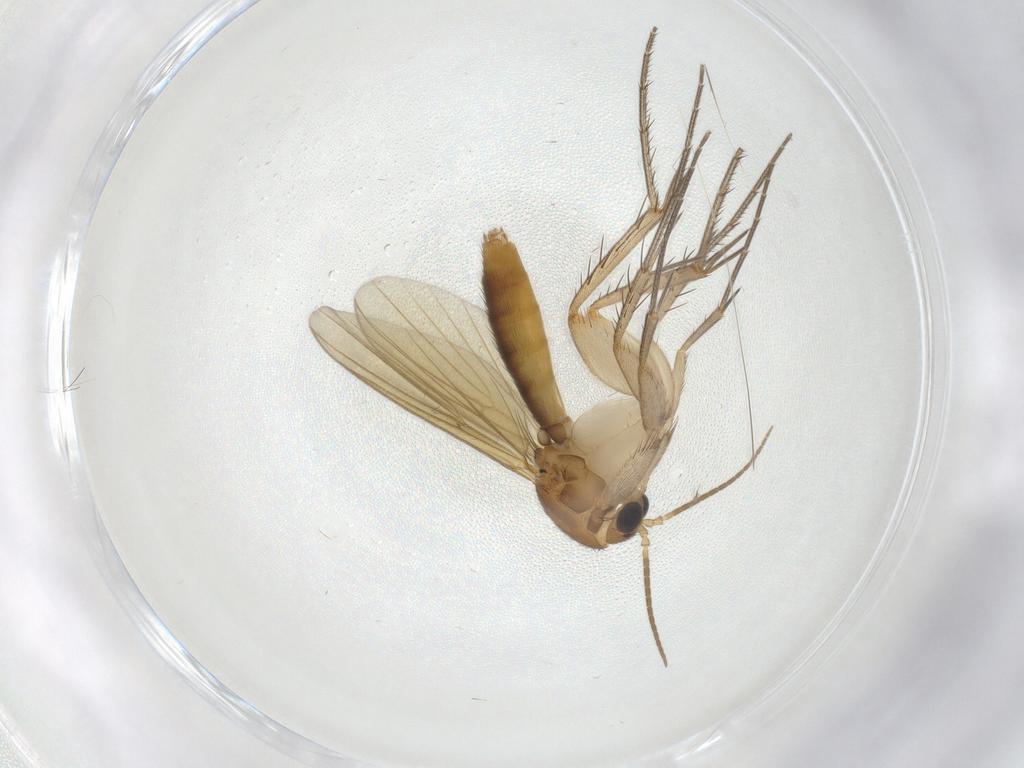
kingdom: Animalia
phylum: Arthropoda
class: Insecta
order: Diptera
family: Mycetophilidae
